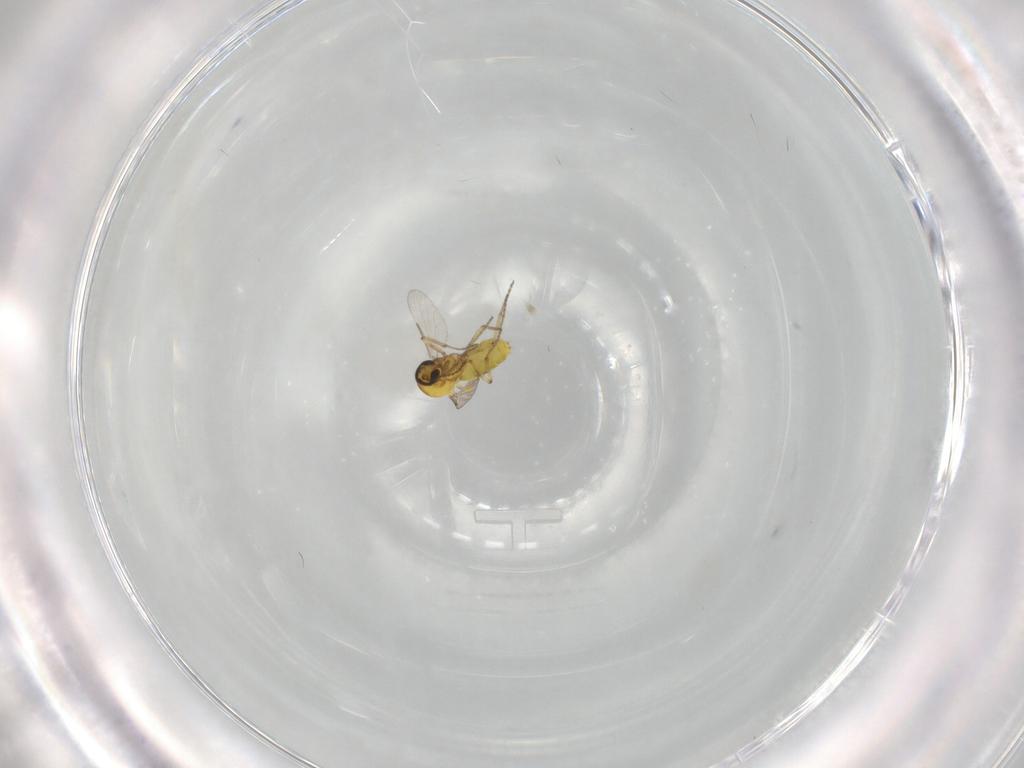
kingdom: Animalia
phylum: Arthropoda
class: Insecta
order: Diptera
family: Ceratopogonidae
